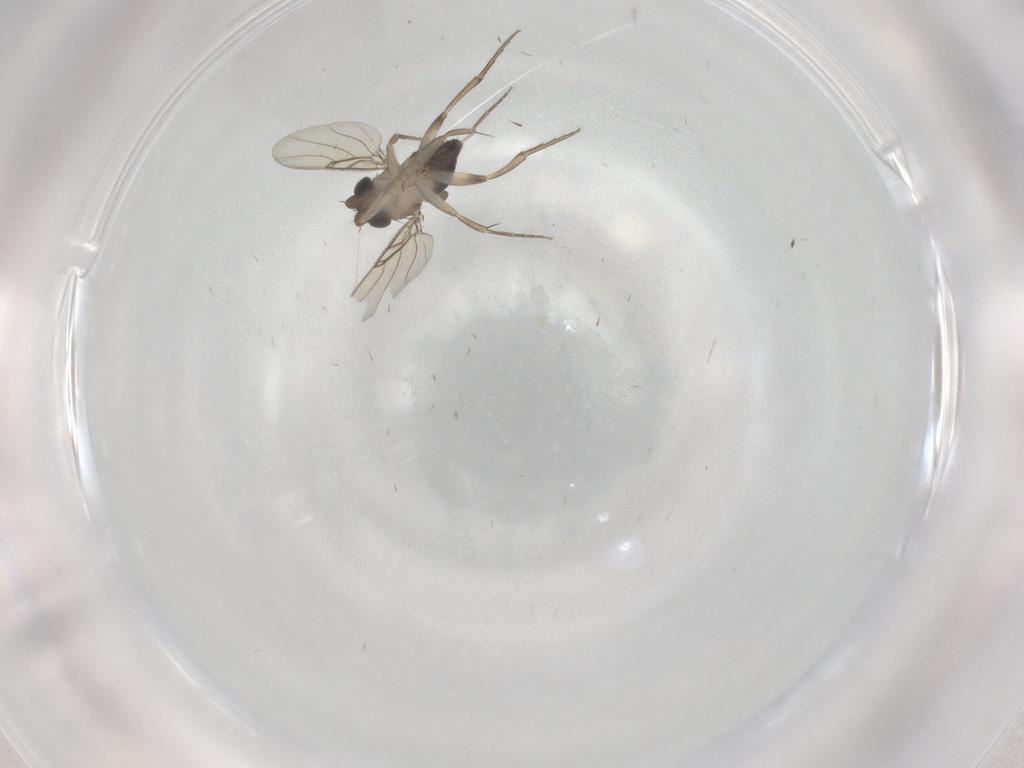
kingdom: Animalia
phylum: Arthropoda
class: Insecta
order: Diptera
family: Phoridae
